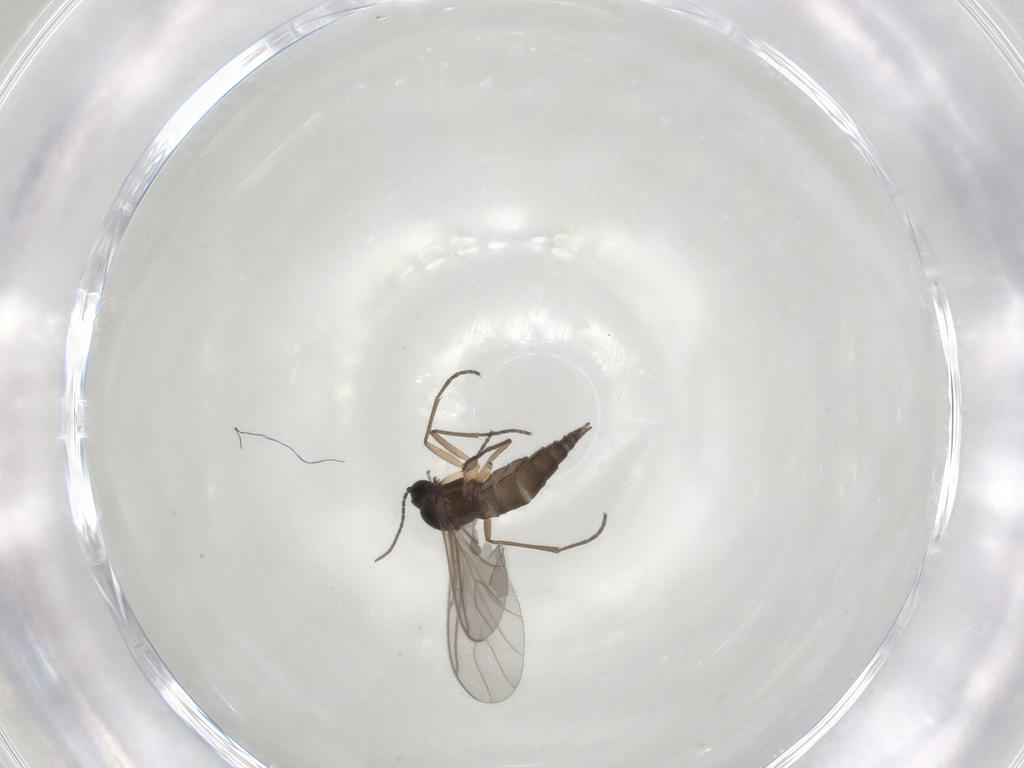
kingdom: Animalia
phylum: Arthropoda
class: Insecta
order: Diptera
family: Sciaridae
